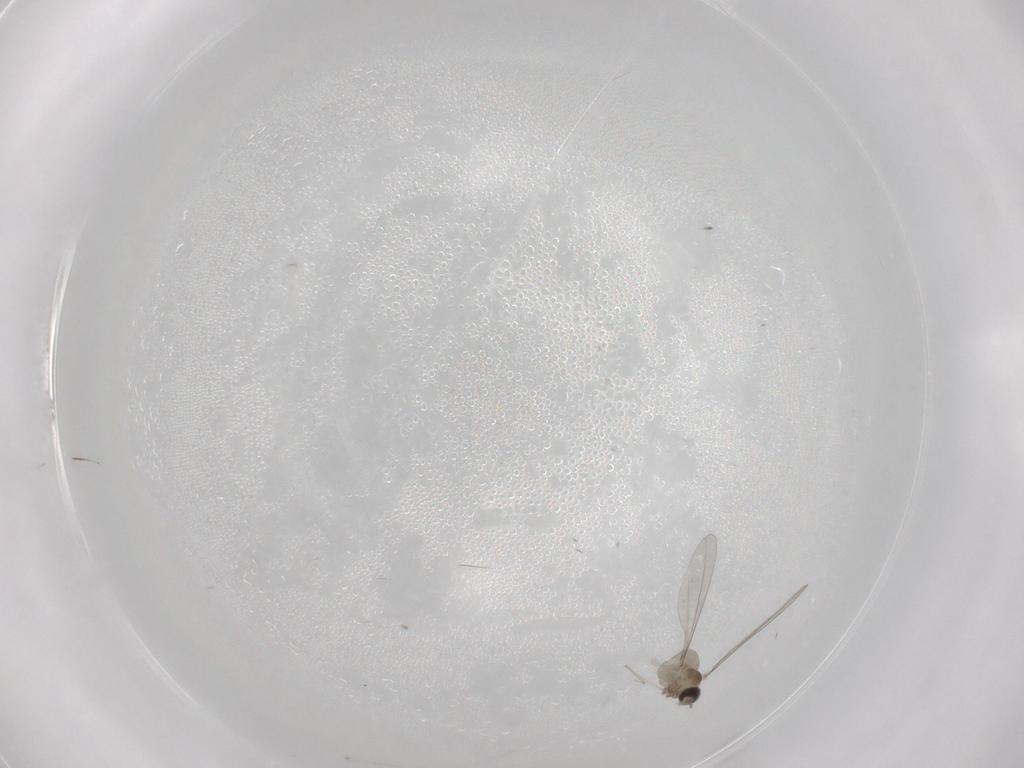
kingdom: Animalia
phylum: Arthropoda
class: Insecta
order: Diptera
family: Cecidomyiidae
